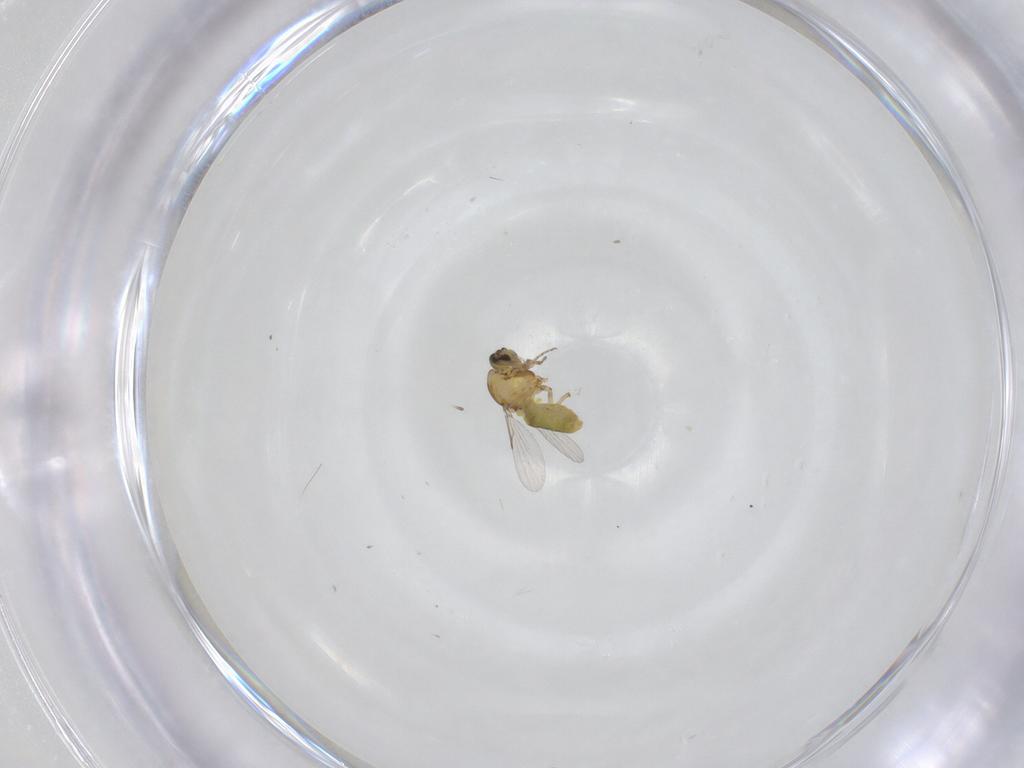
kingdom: Animalia
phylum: Arthropoda
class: Insecta
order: Diptera
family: Ceratopogonidae
